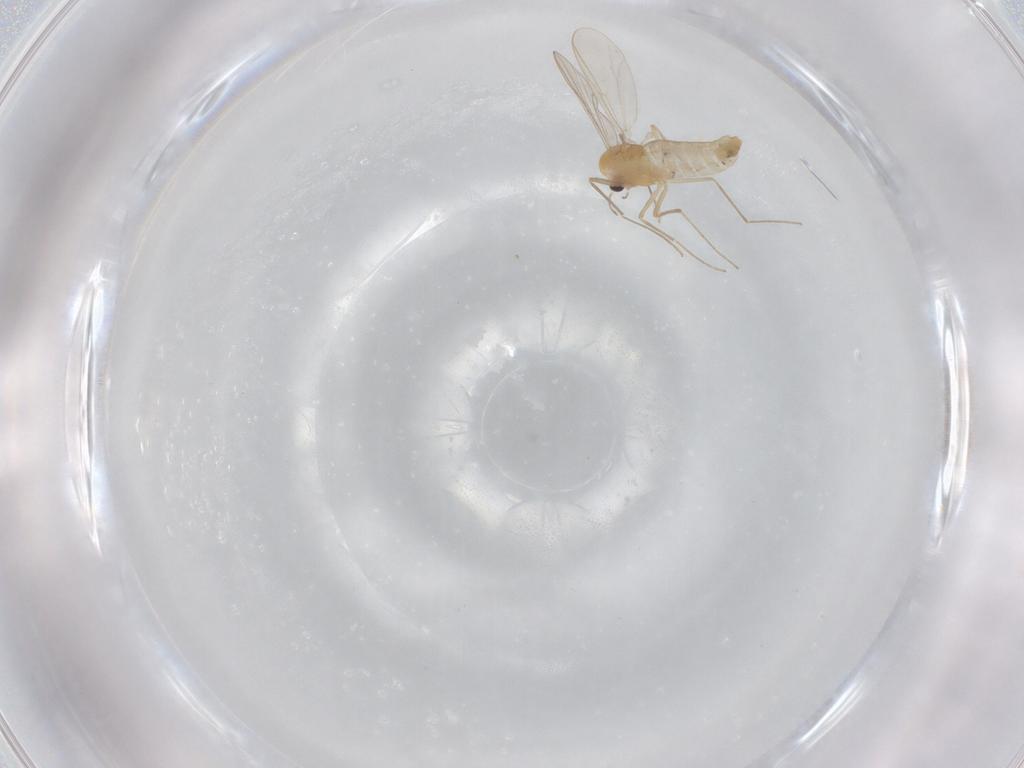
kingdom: Animalia
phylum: Arthropoda
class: Insecta
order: Diptera
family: Chironomidae
